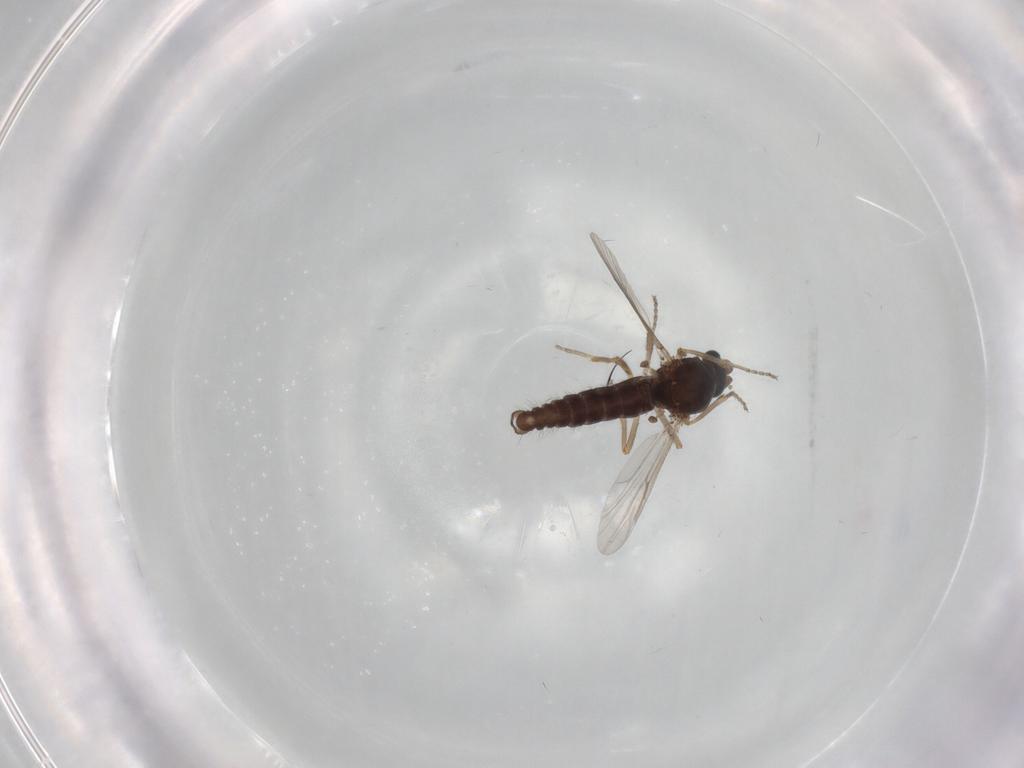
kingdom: Animalia
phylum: Arthropoda
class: Insecta
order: Diptera
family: Ceratopogonidae
